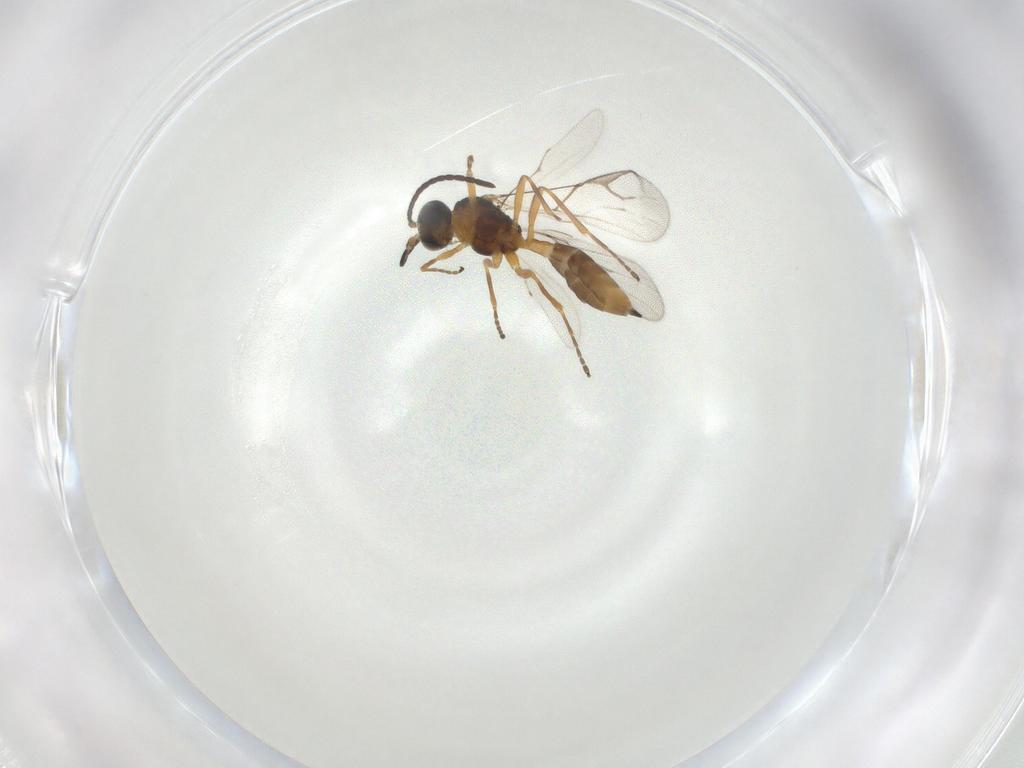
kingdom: Animalia
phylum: Arthropoda
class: Insecta
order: Hymenoptera
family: Braconidae
